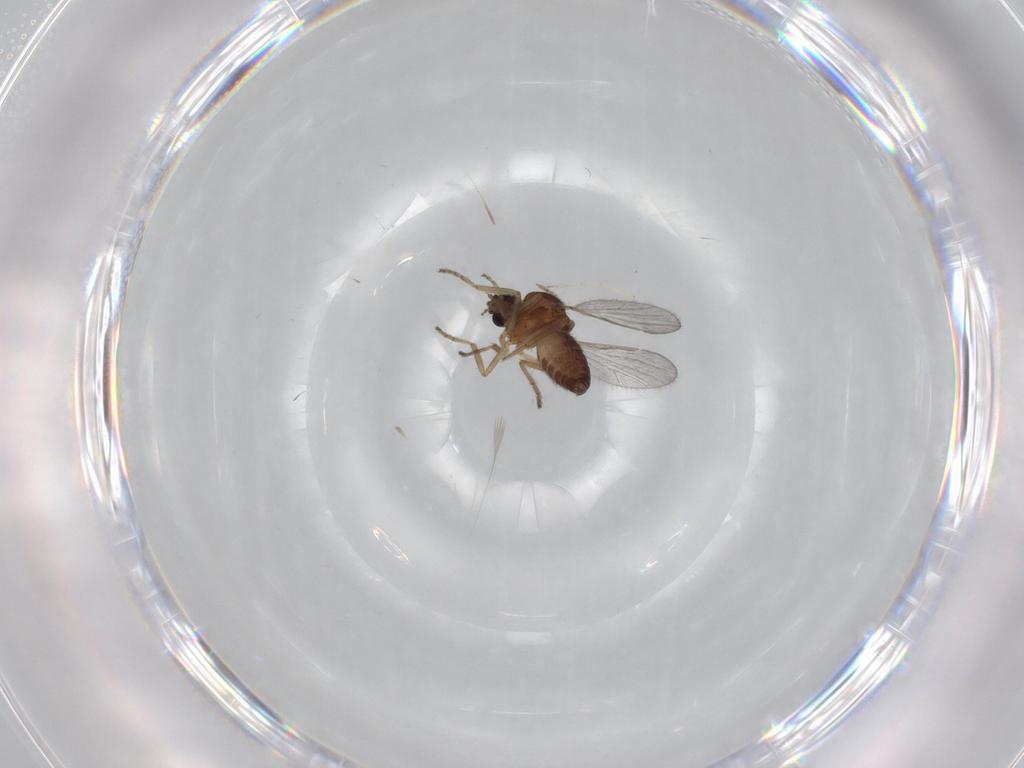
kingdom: Animalia
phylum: Arthropoda
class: Insecta
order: Diptera
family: Ceratopogonidae
